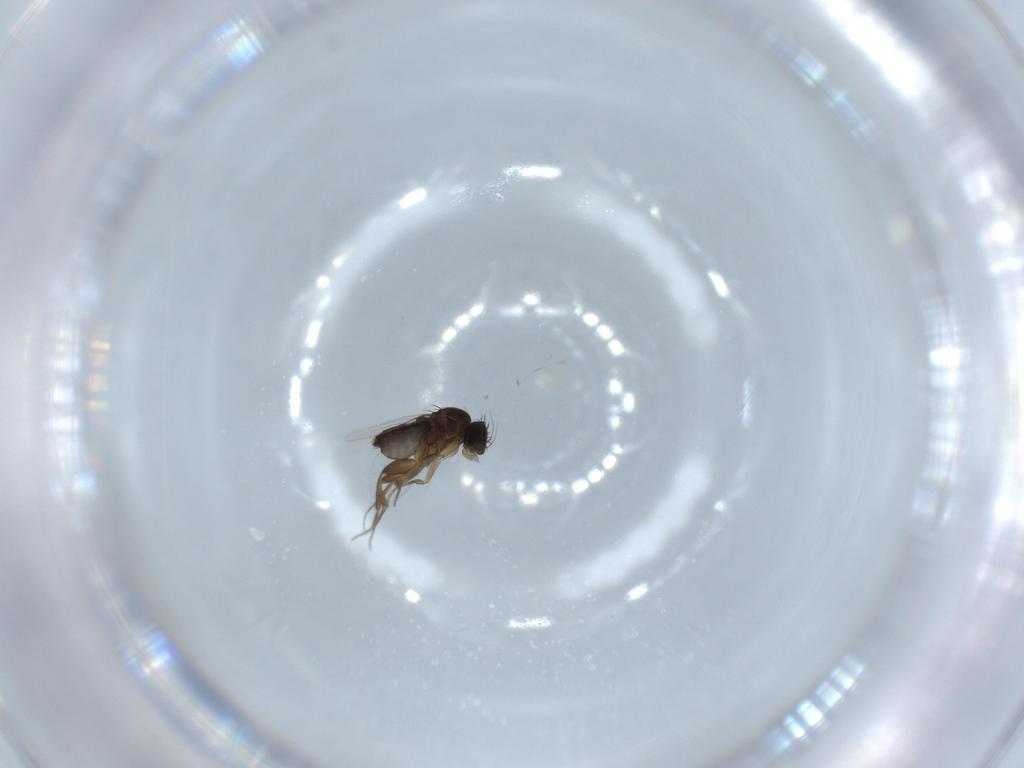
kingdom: Animalia
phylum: Arthropoda
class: Insecta
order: Diptera
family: Phoridae
